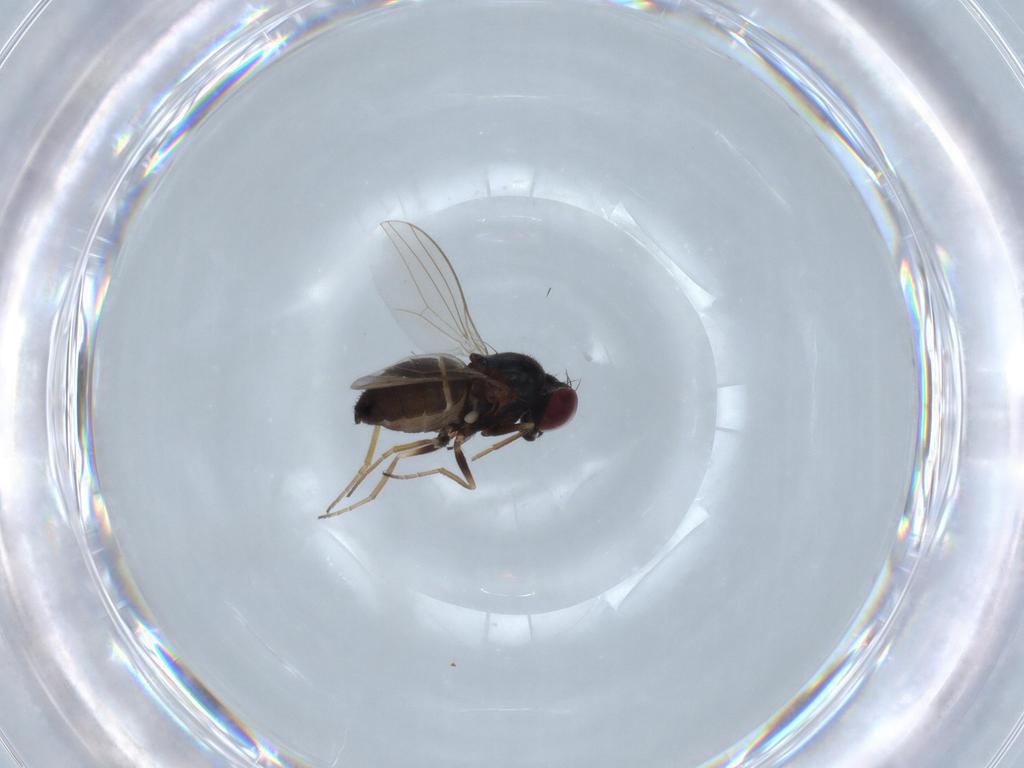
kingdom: Animalia
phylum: Arthropoda
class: Insecta
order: Diptera
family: Dolichopodidae
